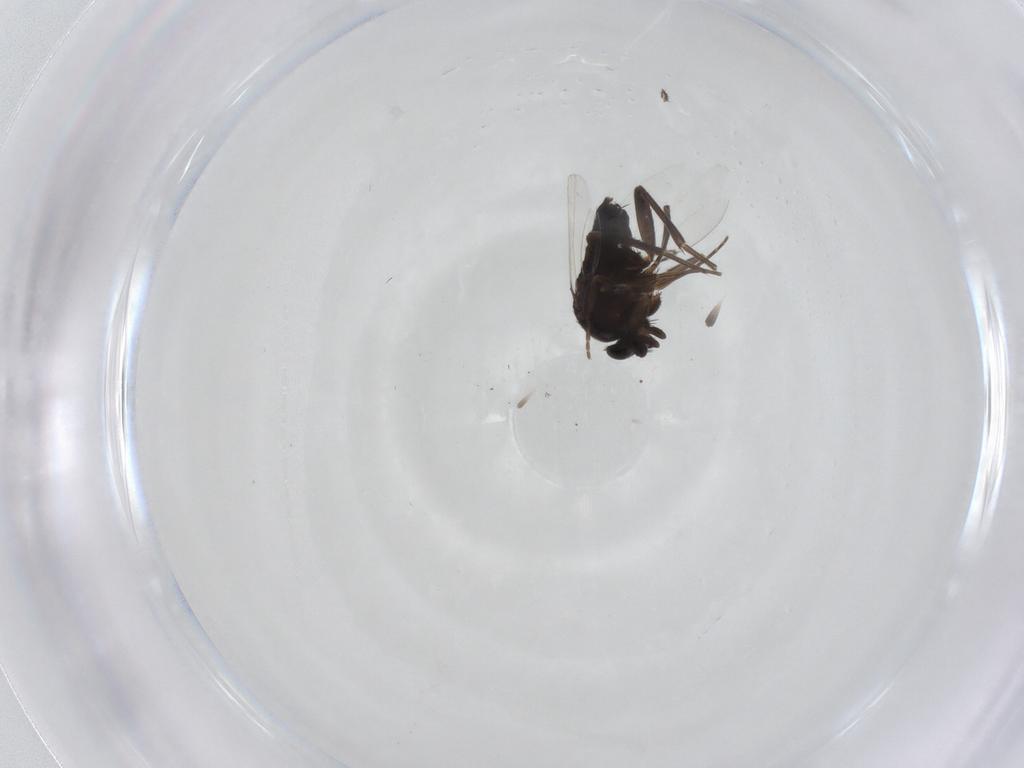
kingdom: Animalia
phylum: Arthropoda
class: Insecta
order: Diptera
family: Phoridae
